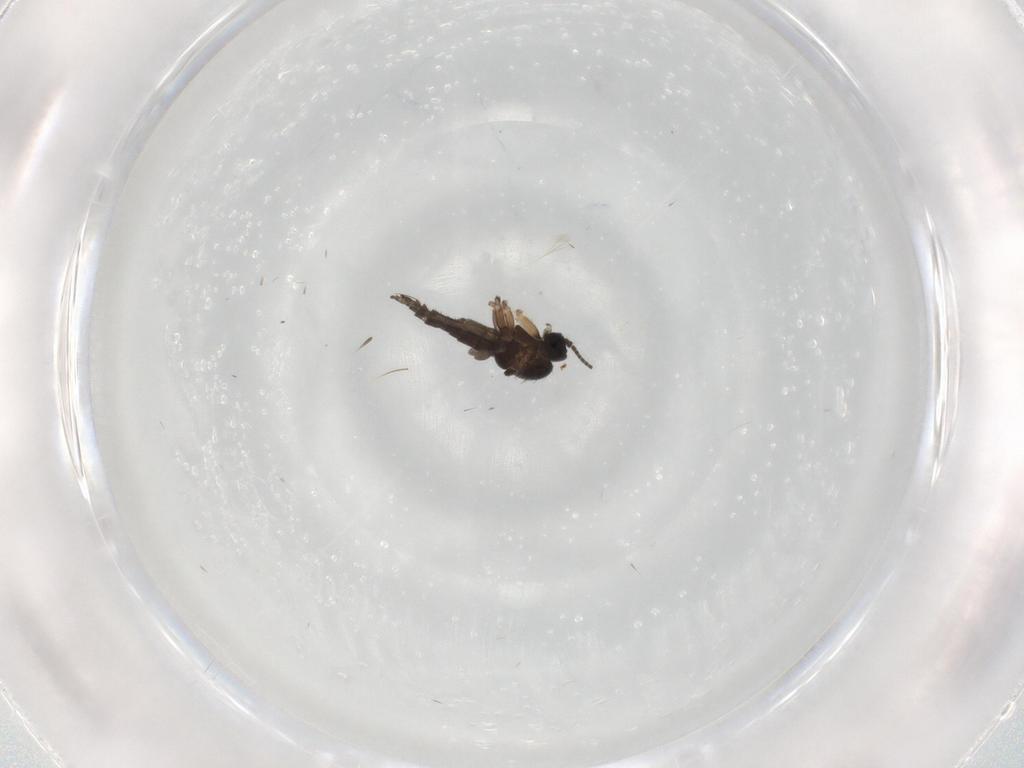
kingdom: Animalia
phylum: Arthropoda
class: Insecta
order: Diptera
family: Sciaridae
